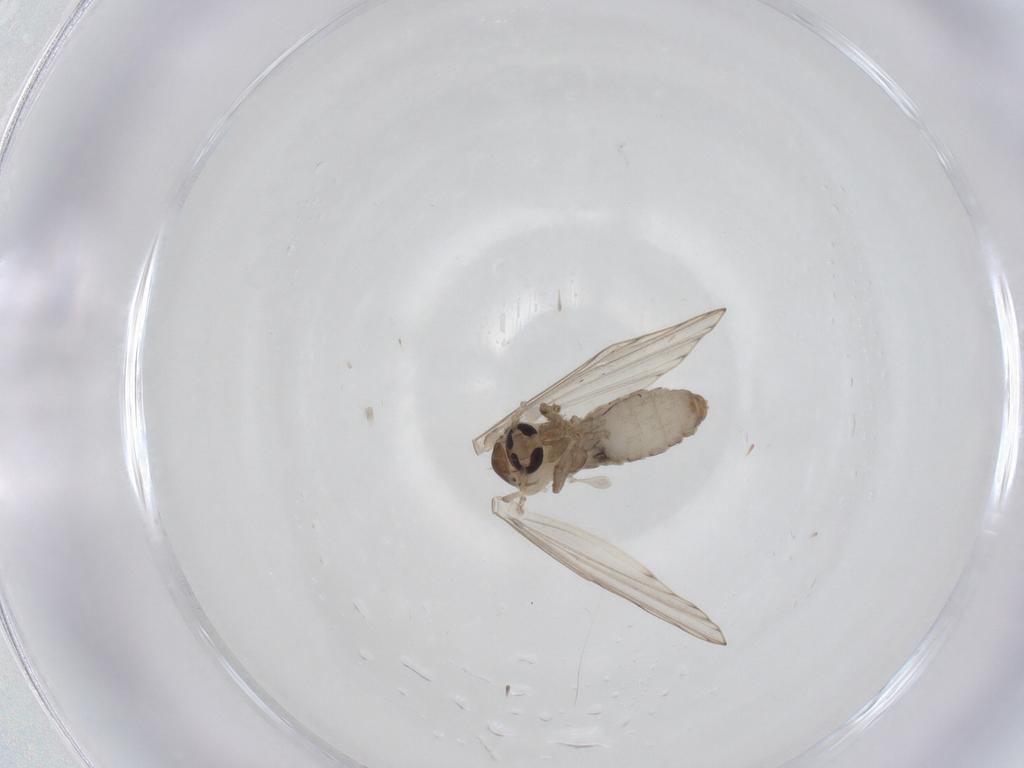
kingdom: Animalia
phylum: Arthropoda
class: Insecta
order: Diptera
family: Psychodidae
